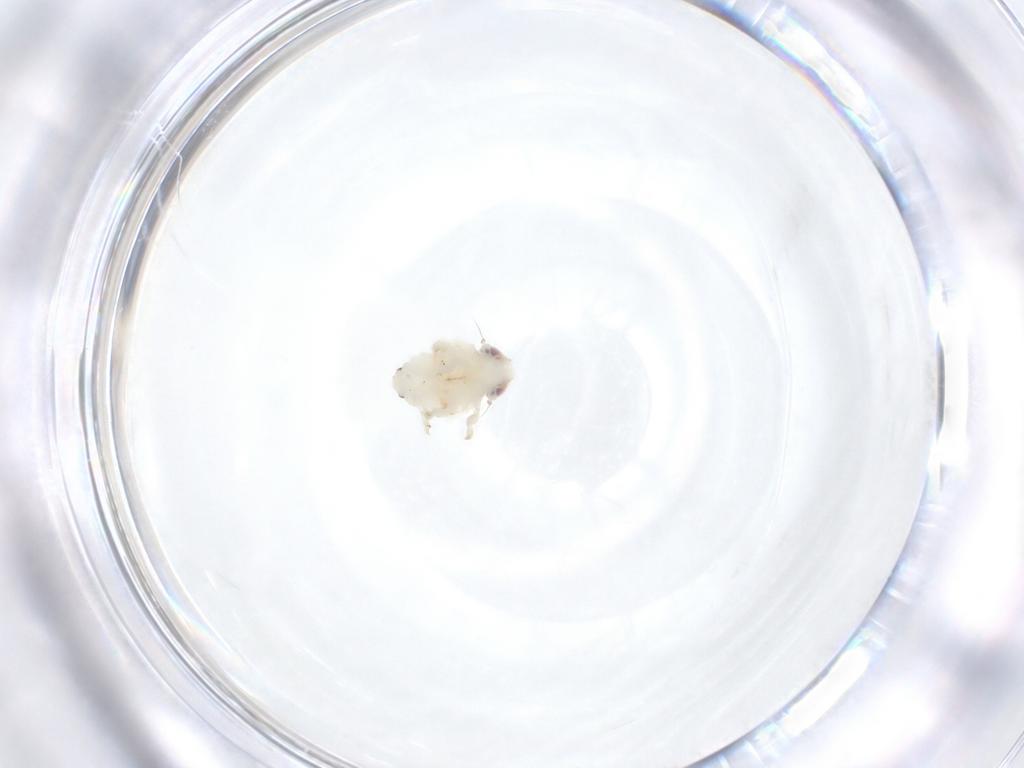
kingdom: Animalia
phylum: Arthropoda
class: Insecta
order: Hemiptera
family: Nogodinidae
